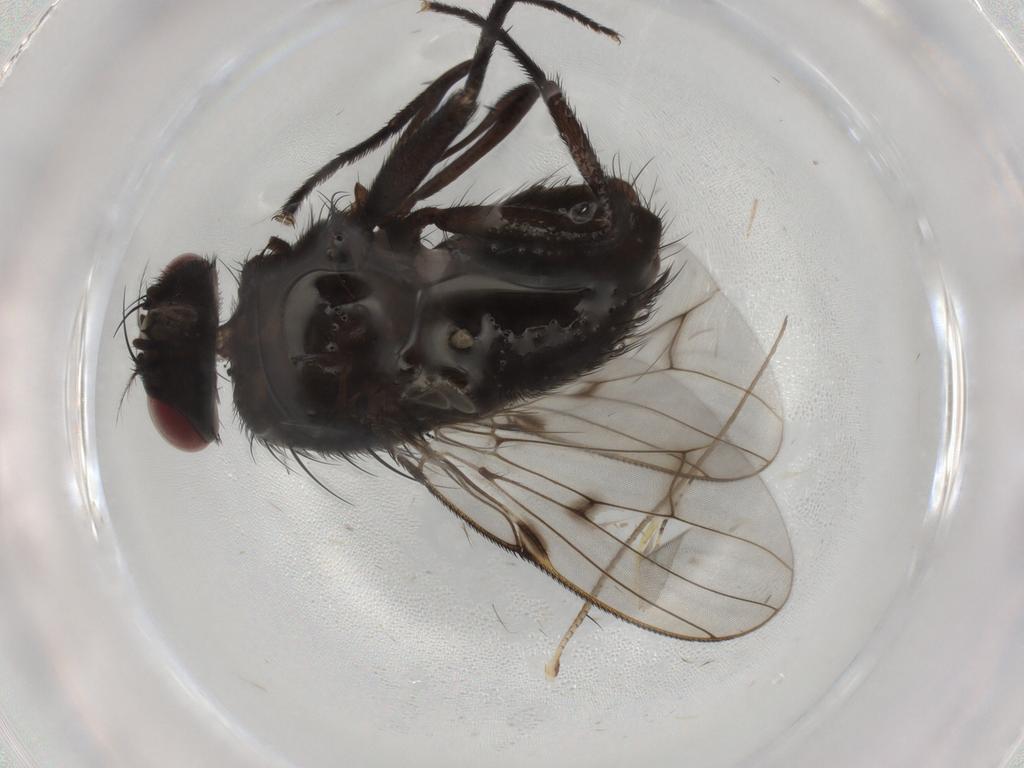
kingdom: Animalia
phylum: Arthropoda
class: Insecta
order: Diptera
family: Muscidae
